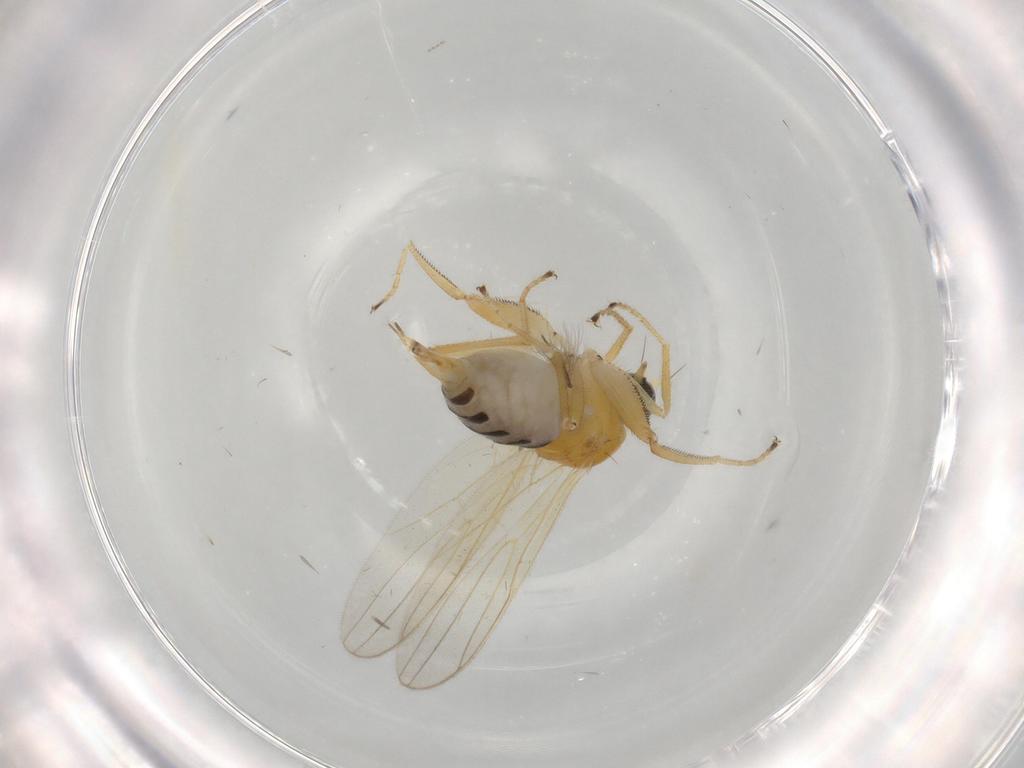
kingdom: Animalia
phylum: Arthropoda
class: Insecta
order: Diptera
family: Hybotidae
